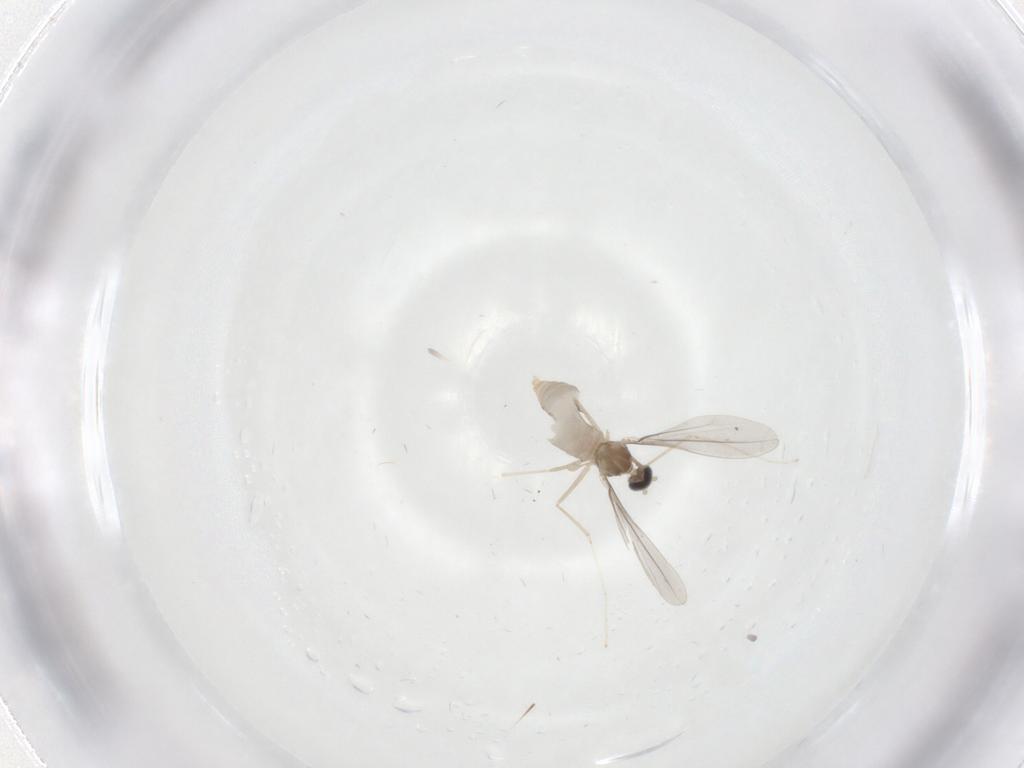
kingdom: Animalia
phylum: Arthropoda
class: Insecta
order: Diptera
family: Cecidomyiidae
